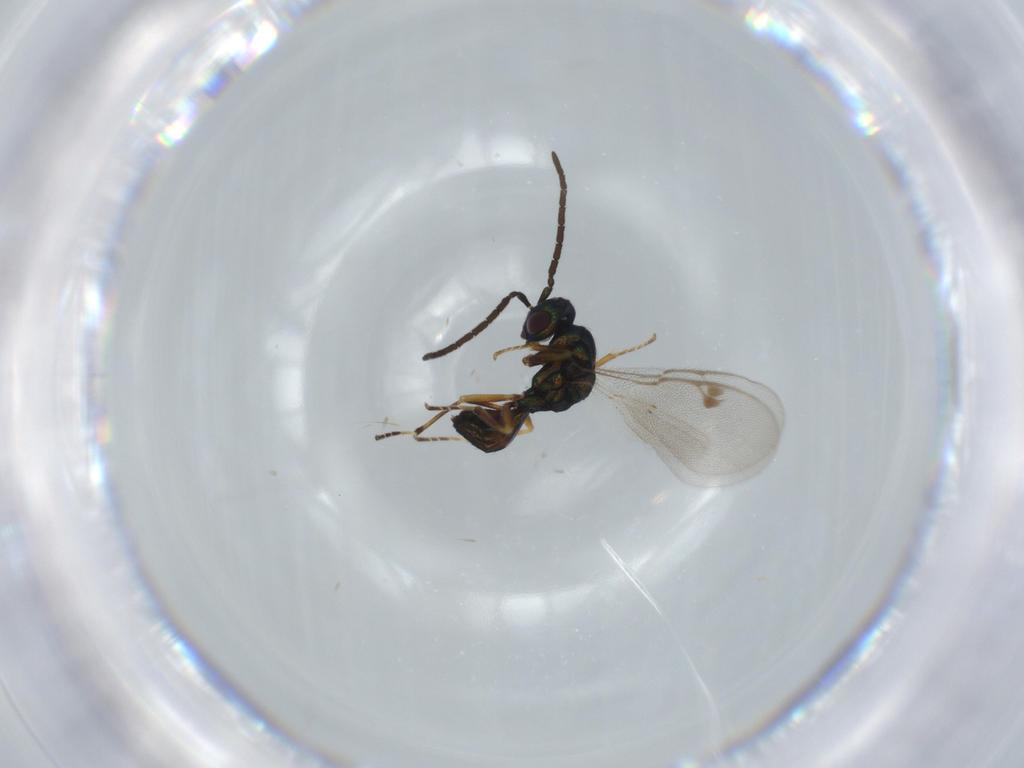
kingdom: Animalia
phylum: Arthropoda
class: Insecta
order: Hymenoptera
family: Pteromalidae
